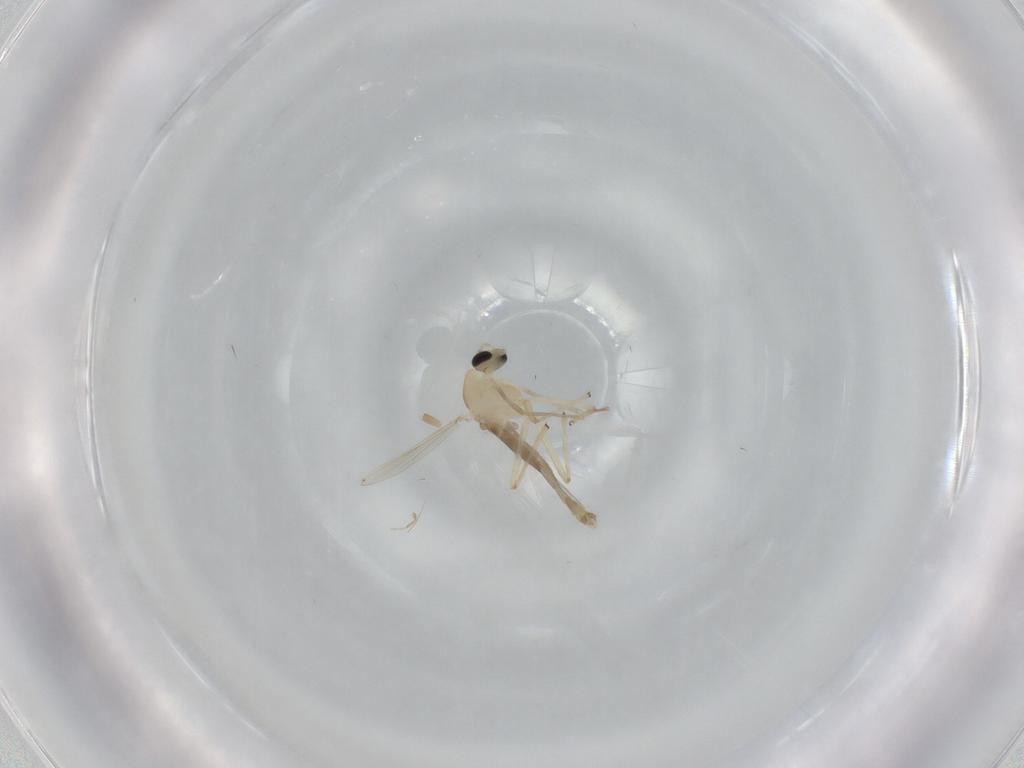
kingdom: Animalia
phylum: Arthropoda
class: Insecta
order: Diptera
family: Chironomidae
